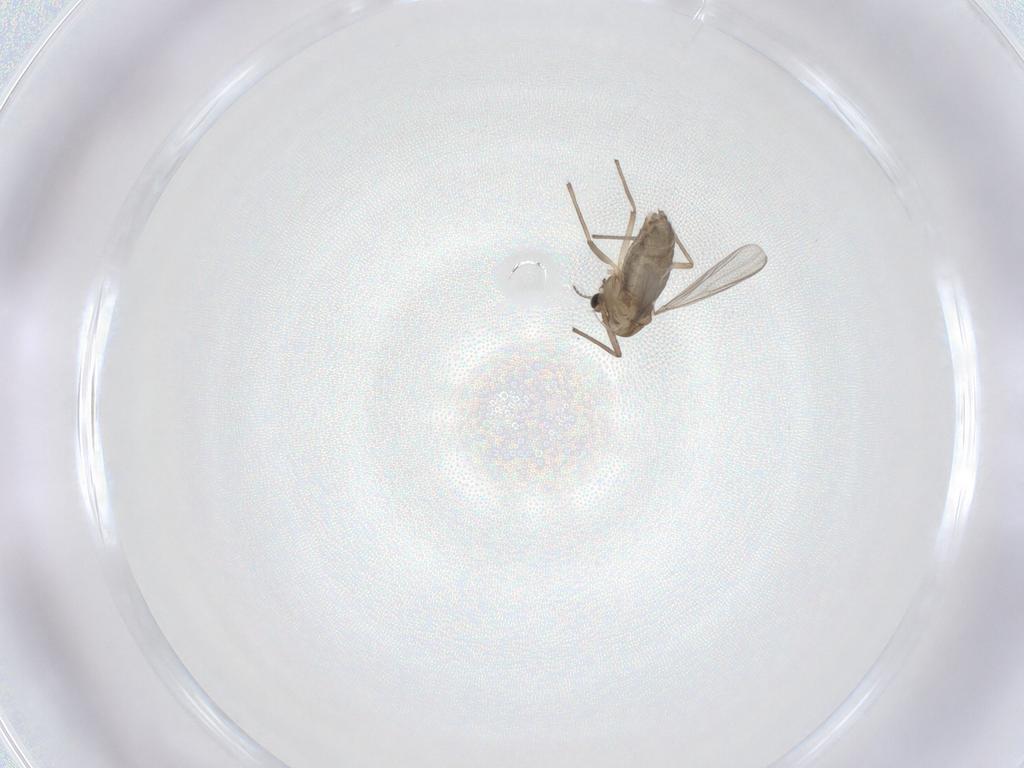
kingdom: Animalia
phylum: Arthropoda
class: Insecta
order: Diptera
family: Chironomidae
